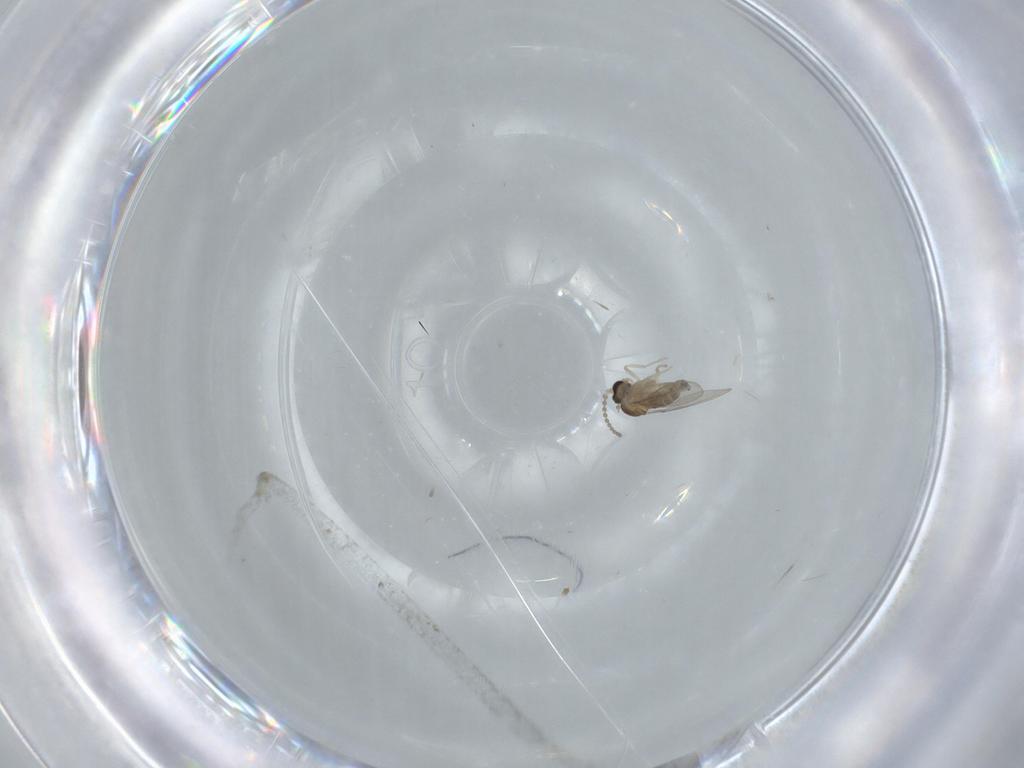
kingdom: Animalia
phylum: Arthropoda
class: Insecta
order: Diptera
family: Cecidomyiidae
